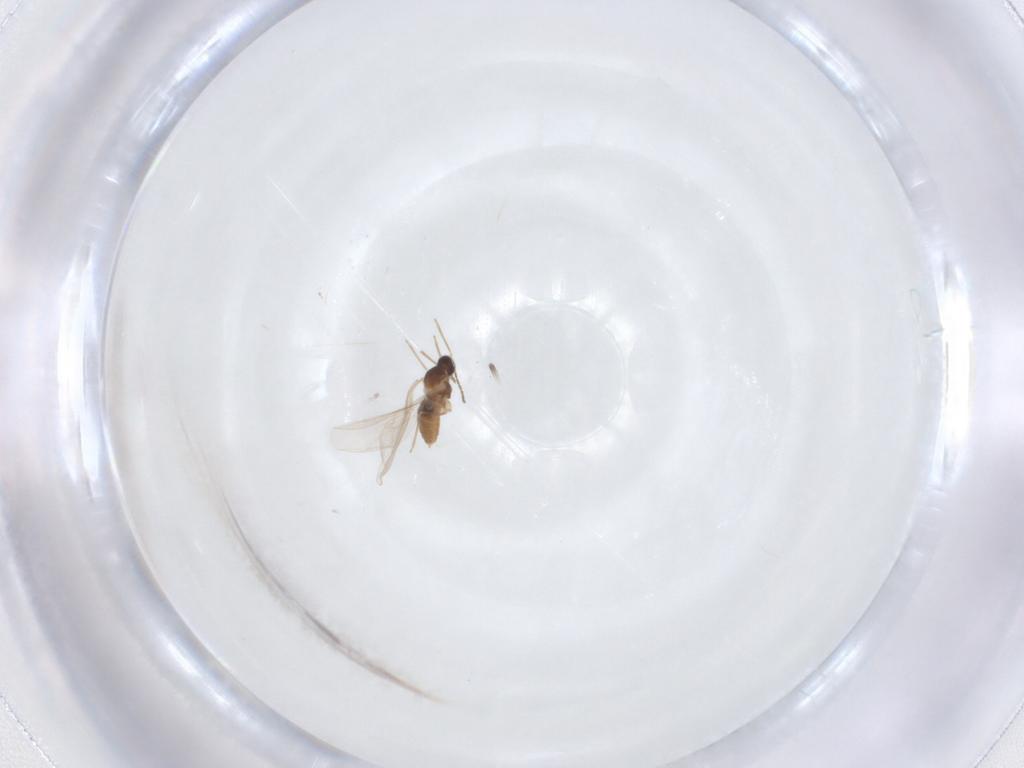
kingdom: Animalia
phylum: Arthropoda
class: Insecta
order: Diptera
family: Cecidomyiidae
